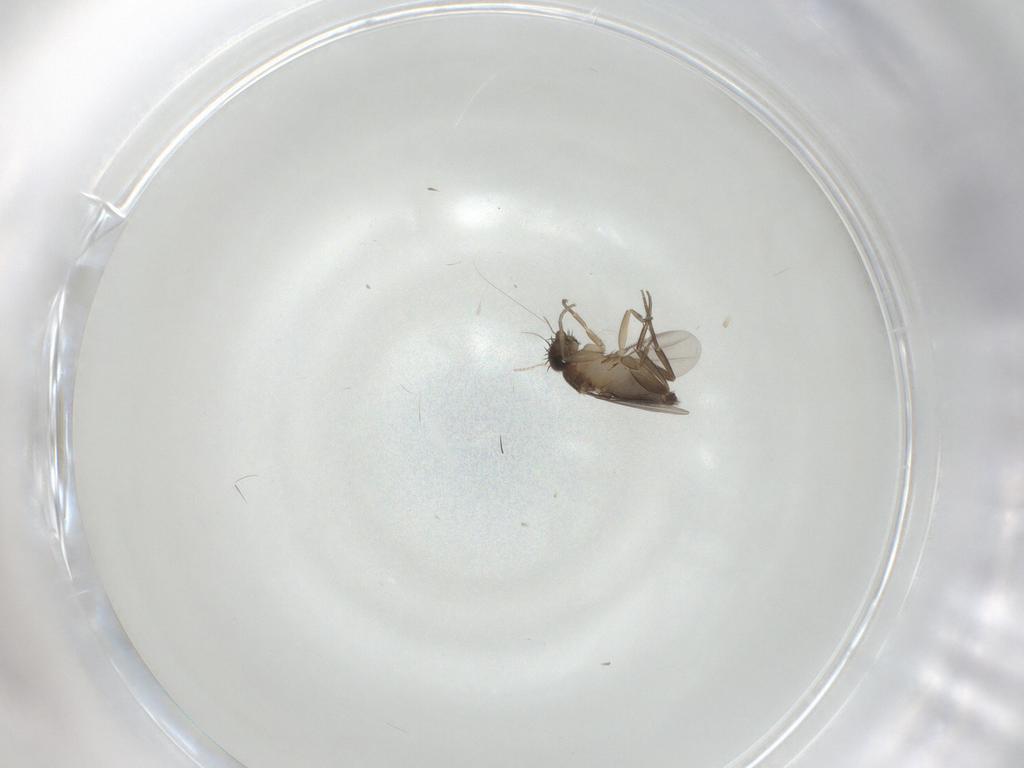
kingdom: Animalia
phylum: Arthropoda
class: Insecta
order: Diptera
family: Phoridae
